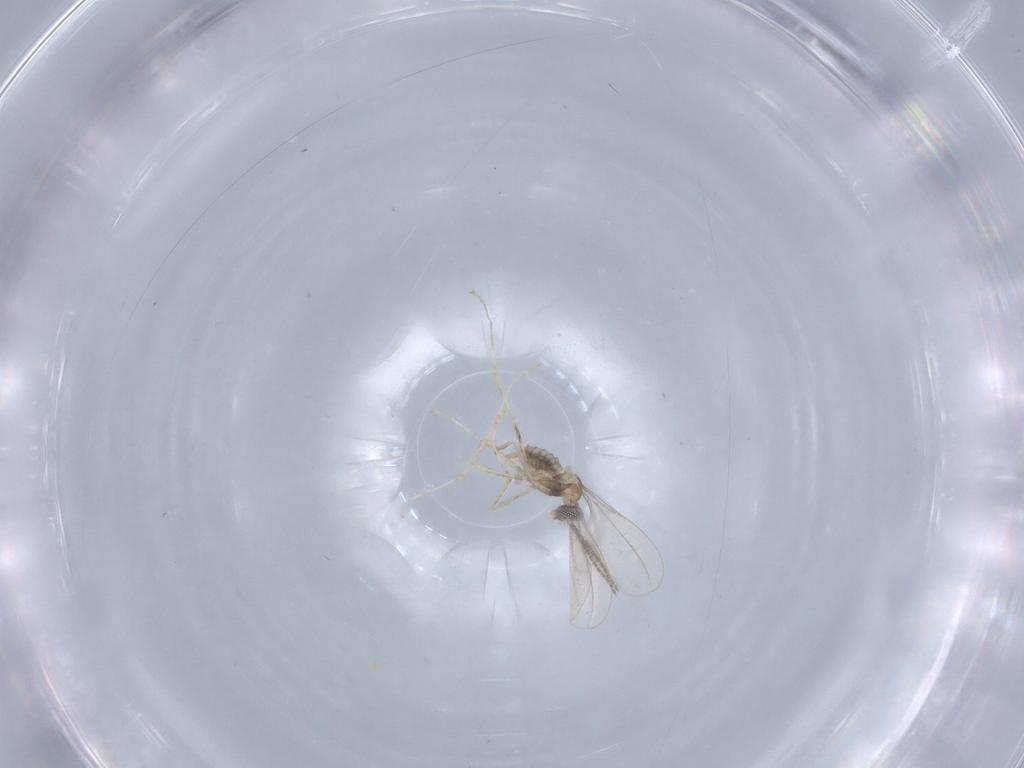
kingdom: Animalia
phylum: Arthropoda
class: Insecta
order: Diptera
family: Cecidomyiidae
